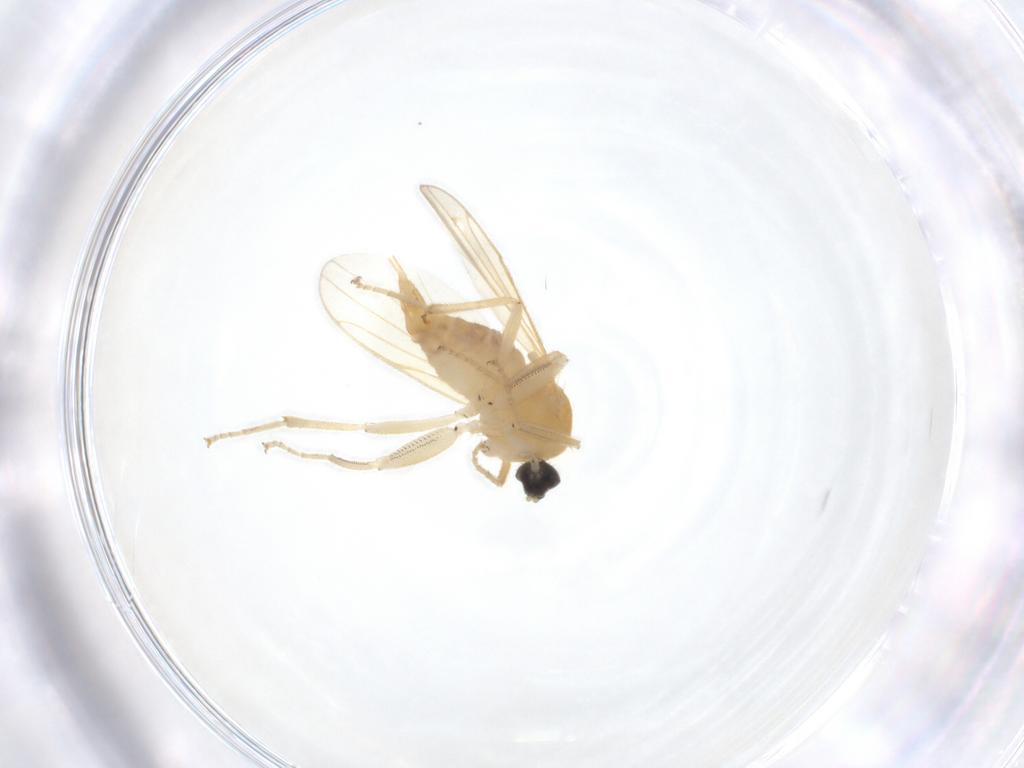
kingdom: Animalia
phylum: Arthropoda
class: Insecta
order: Diptera
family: Hybotidae
